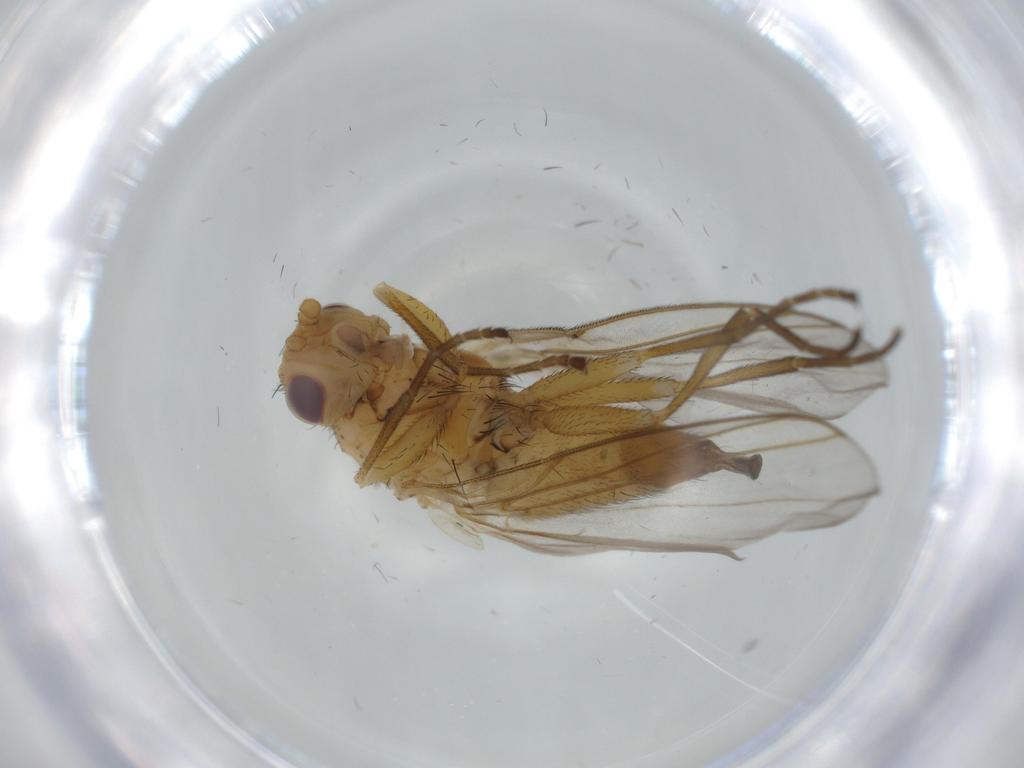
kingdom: Animalia
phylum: Arthropoda
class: Insecta
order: Diptera
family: Agromyzidae
